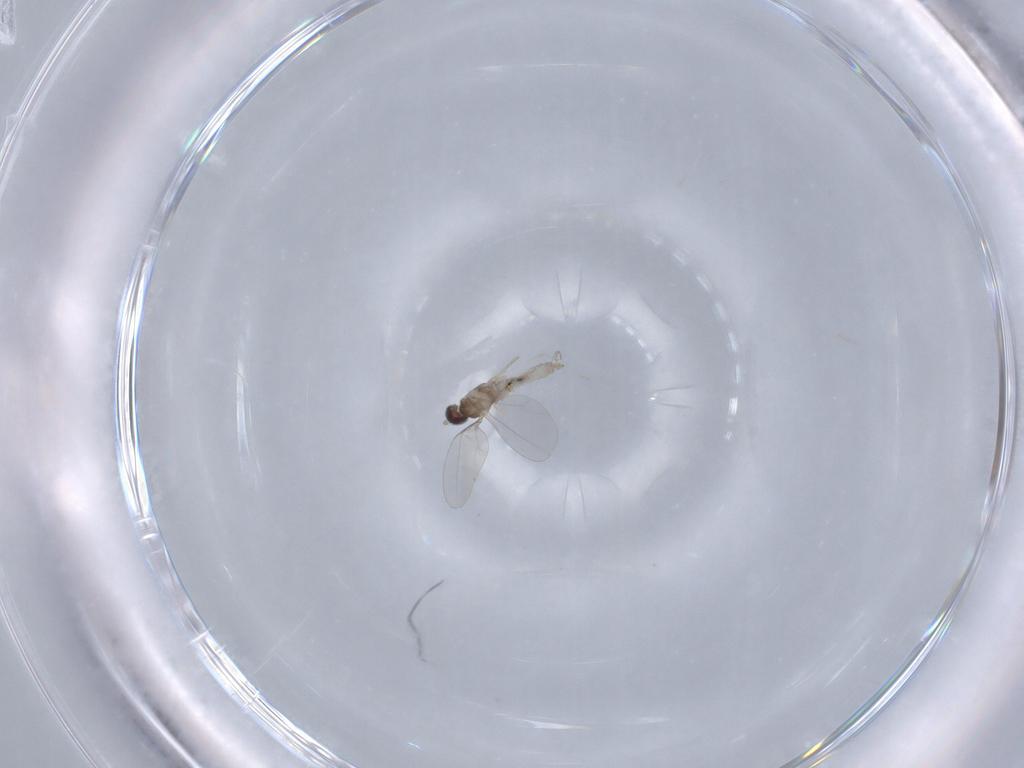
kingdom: Animalia
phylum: Arthropoda
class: Insecta
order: Diptera
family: Cecidomyiidae
